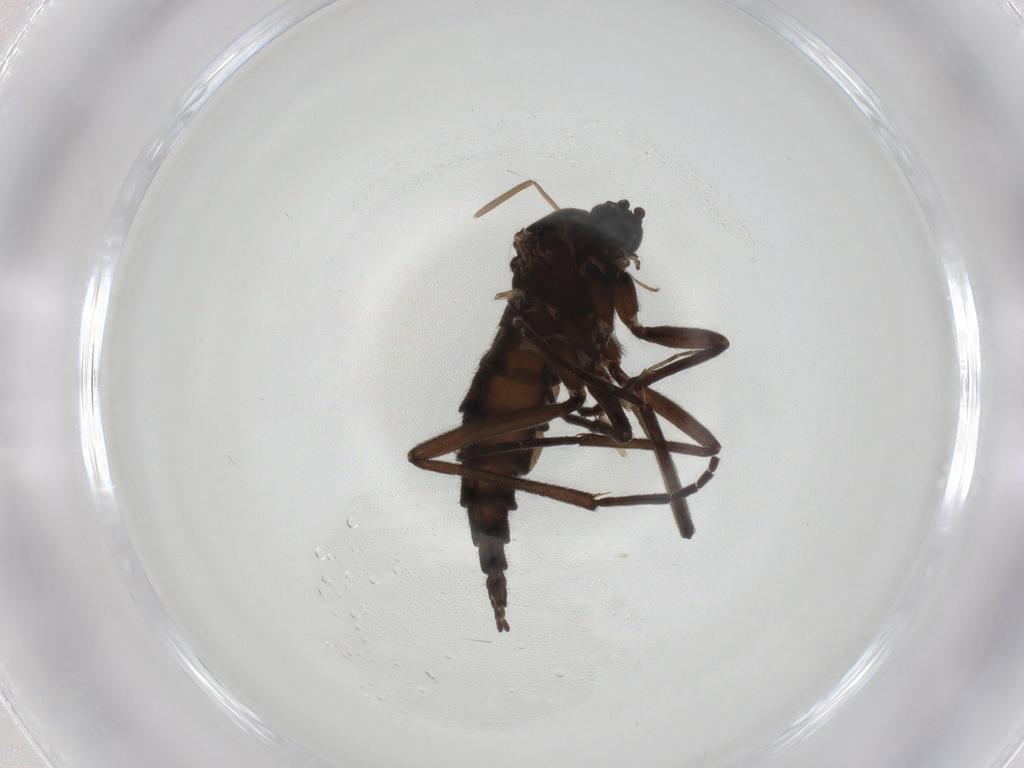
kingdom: Animalia
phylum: Arthropoda
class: Insecta
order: Diptera
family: Sciaridae
